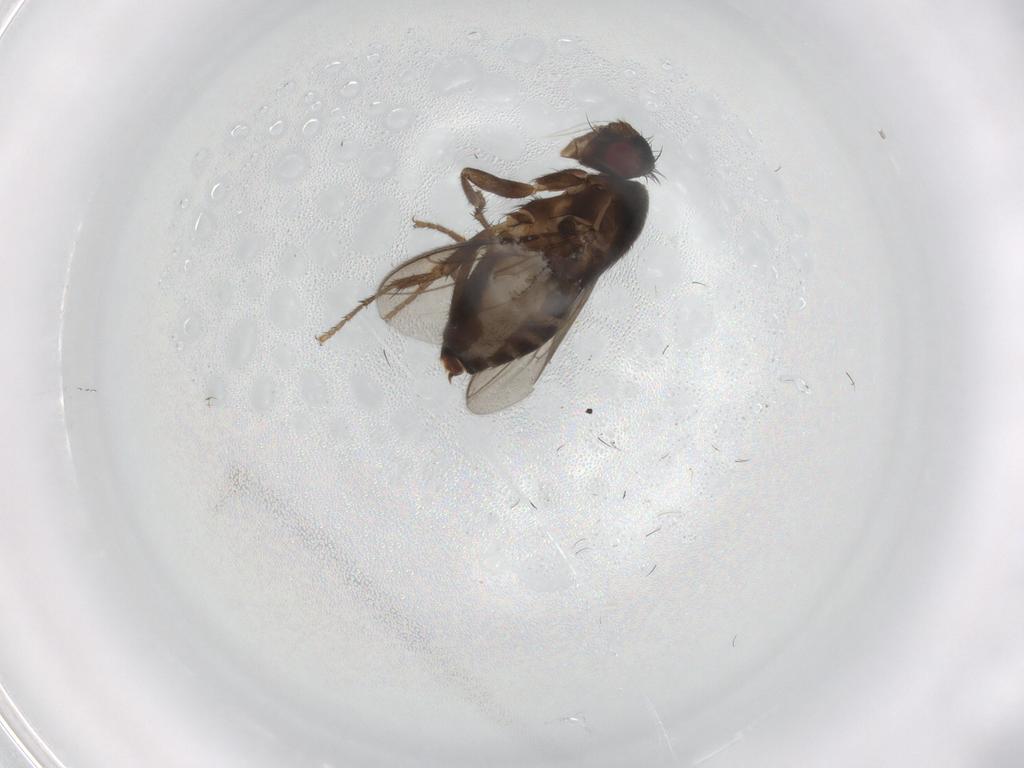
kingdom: Animalia
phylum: Arthropoda
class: Insecta
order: Diptera
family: Sphaeroceridae
